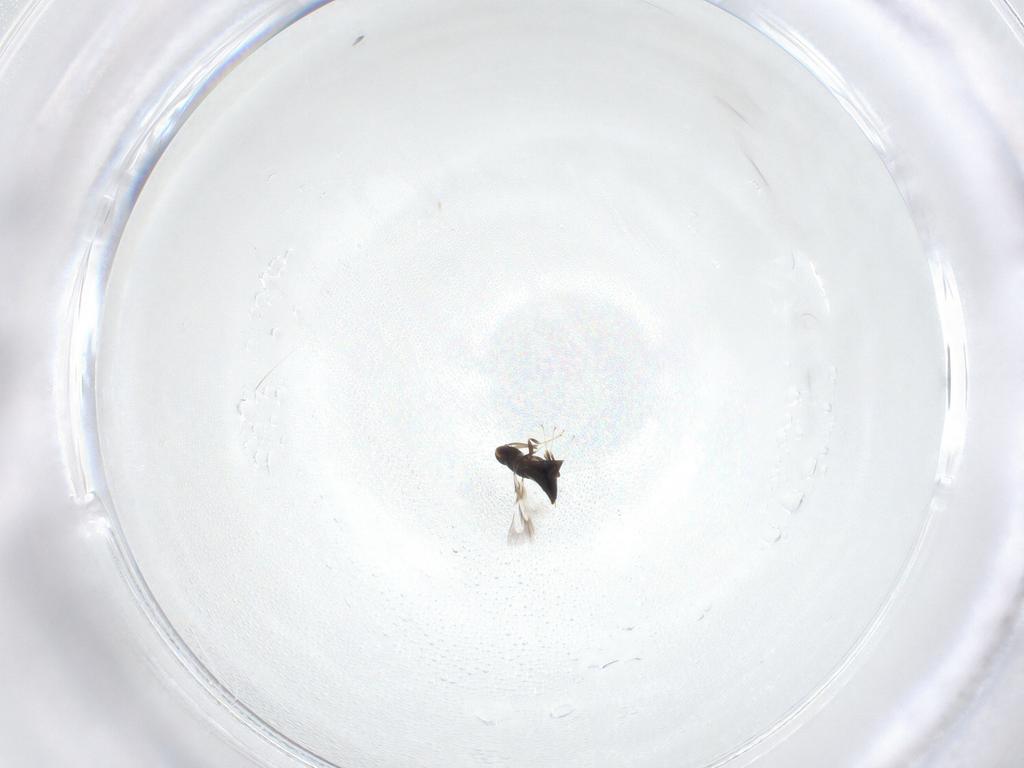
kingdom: Animalia
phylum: Arthropoda
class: Insecta
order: Hymenoptera
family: Signiphoridae
